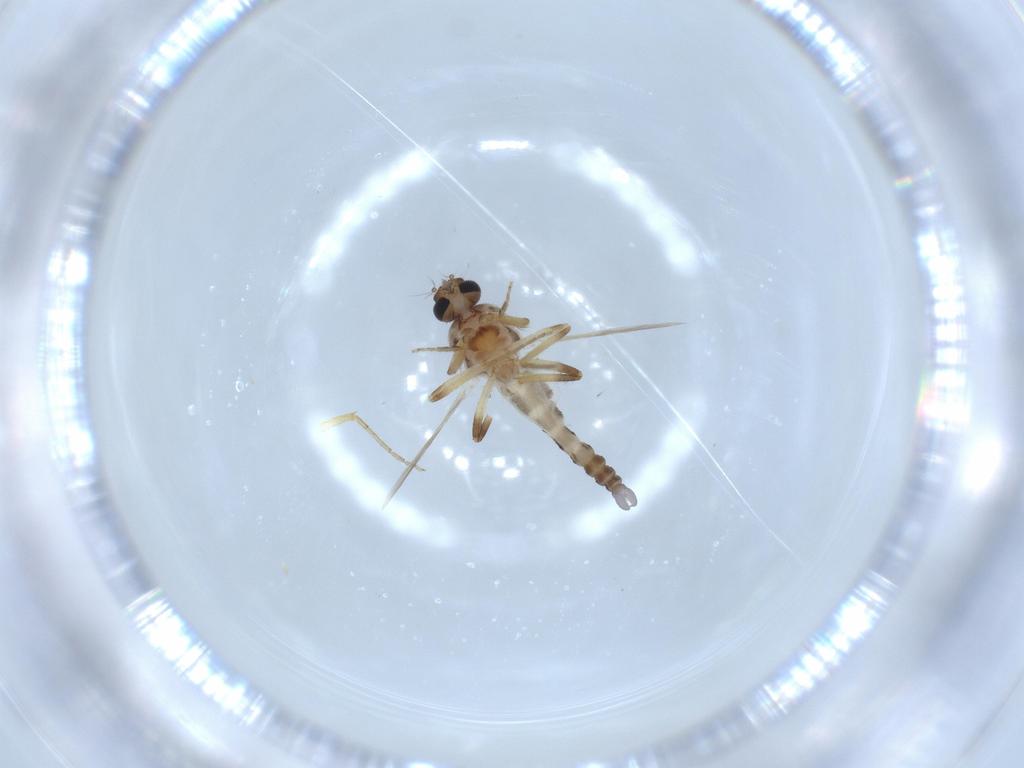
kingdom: Animalia
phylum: Arthropoda
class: Insecta
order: Diptera
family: Ceratopogonidae
